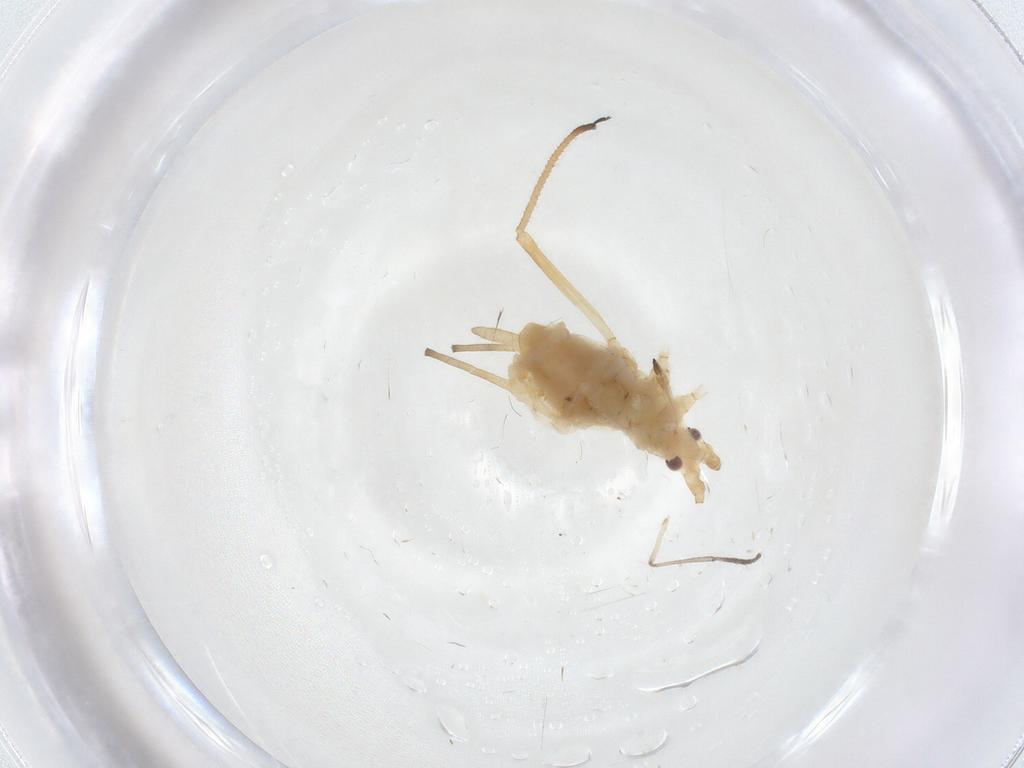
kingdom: Animalia
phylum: Arthropoda
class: Insecta
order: Hemiptera
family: Aphididae
